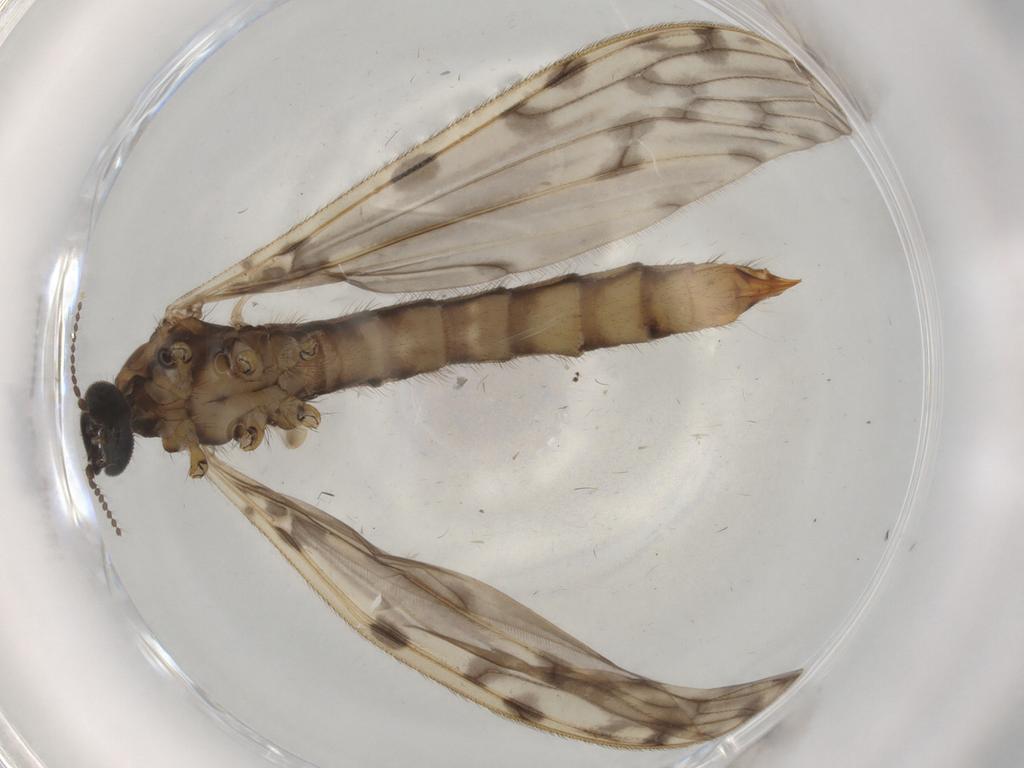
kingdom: Animalia
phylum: Arthropoda
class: Insecta
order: Diptera
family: Sciaridae
